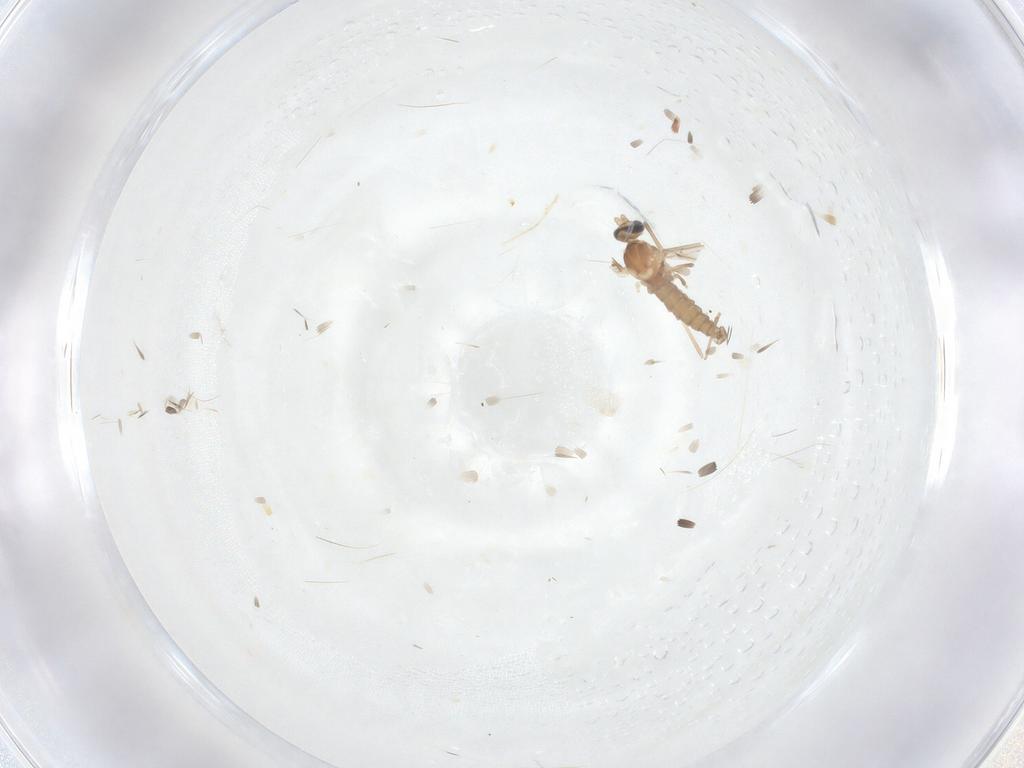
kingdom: Animalia
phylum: Arthropoda
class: Insecta
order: Diptera
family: Cecidomyiidae
